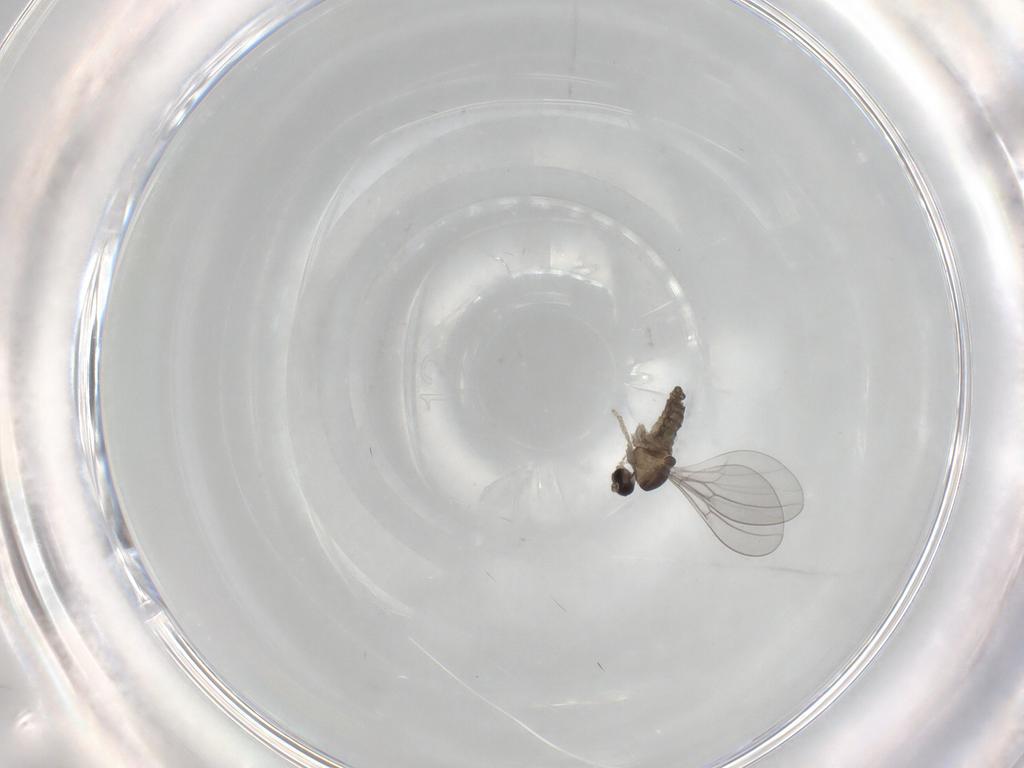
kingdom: Animalia
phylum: Arthropoda
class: Insecta
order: Diptera
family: Cecidomyiidae
